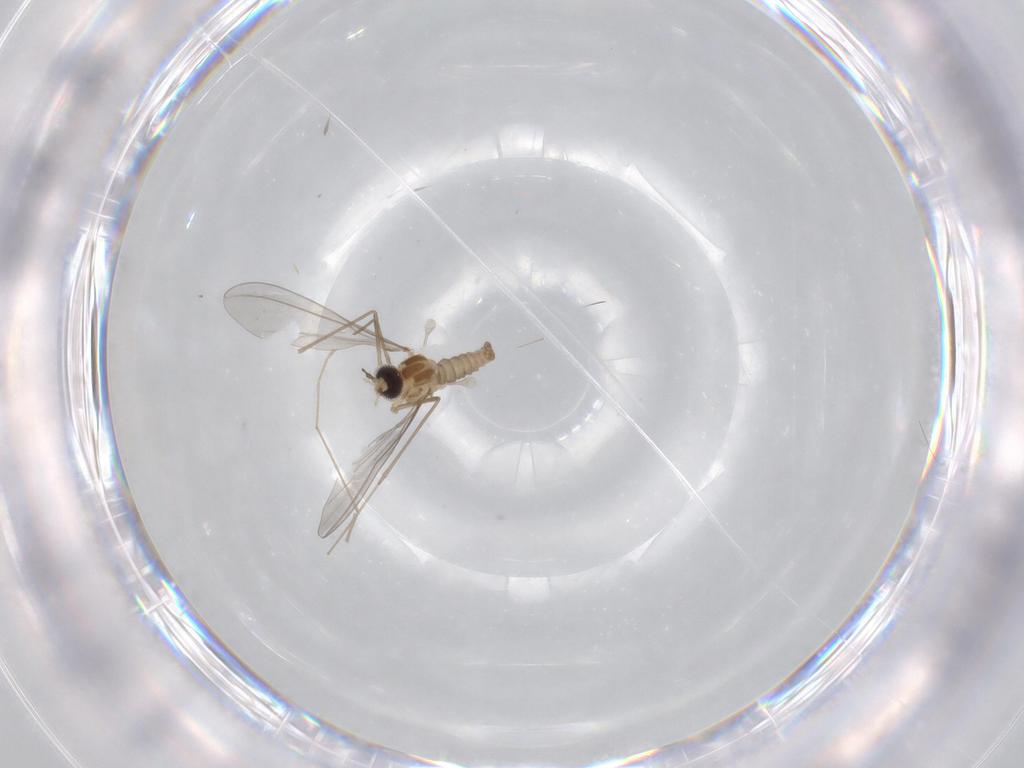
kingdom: Animalia
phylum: Arthropoda
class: Insecta
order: Diptera
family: Cecidomyiidae
